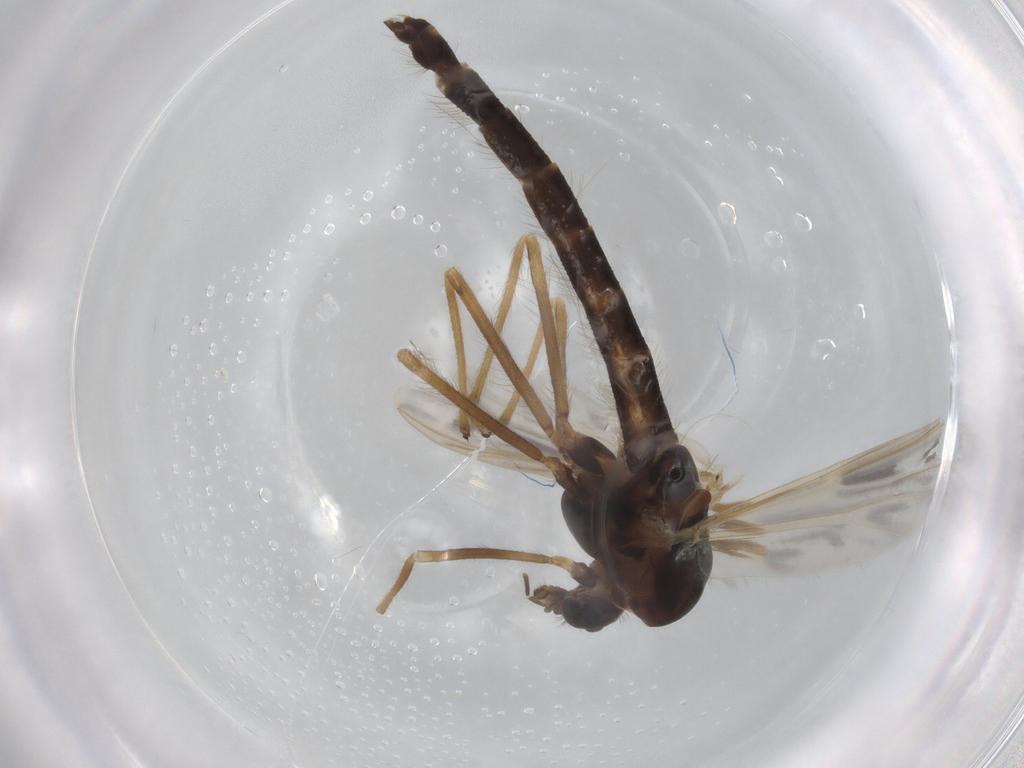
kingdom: Animalia
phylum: Arthropoda
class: Insecta
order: Diptera
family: Chironomidae
